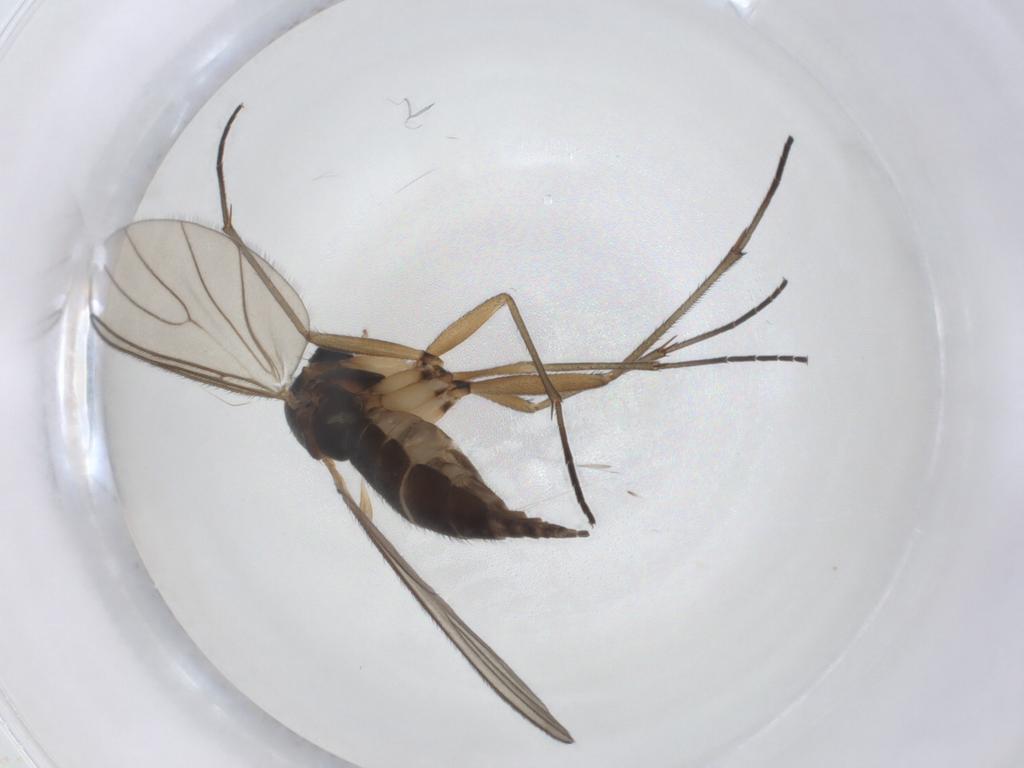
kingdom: Animalia
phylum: Arthropoda
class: Insecta
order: Diptera
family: Sciaridae
